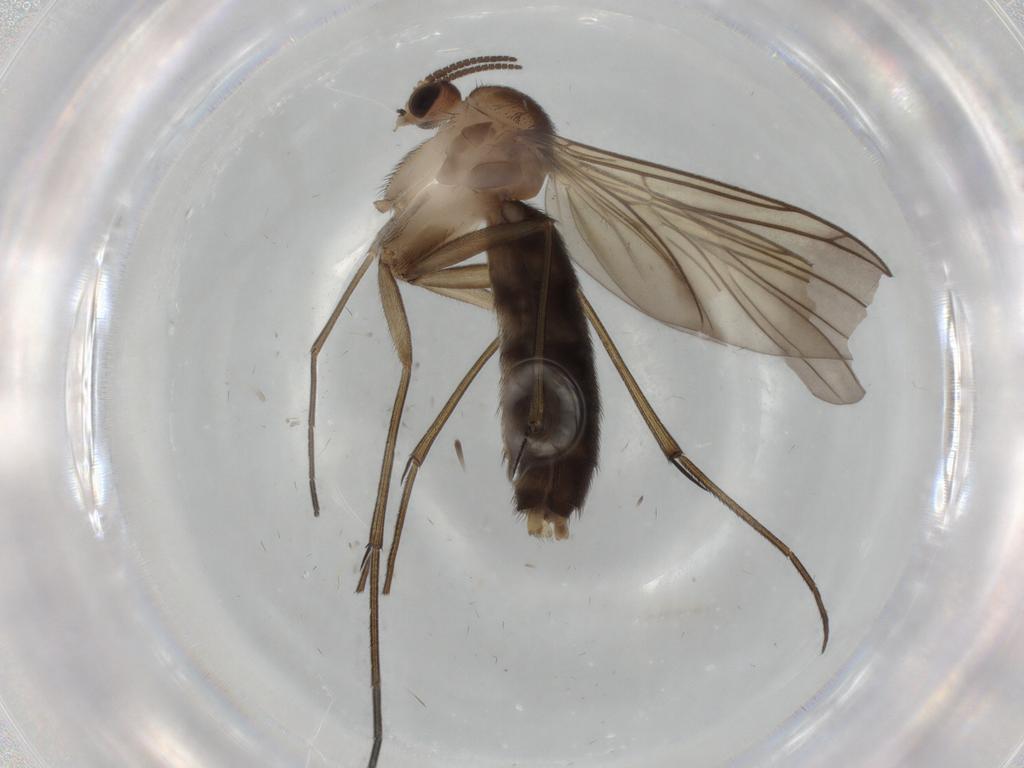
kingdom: Animalia
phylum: Arthropoda
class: Insecta
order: Diptera
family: Mycetophilidae
